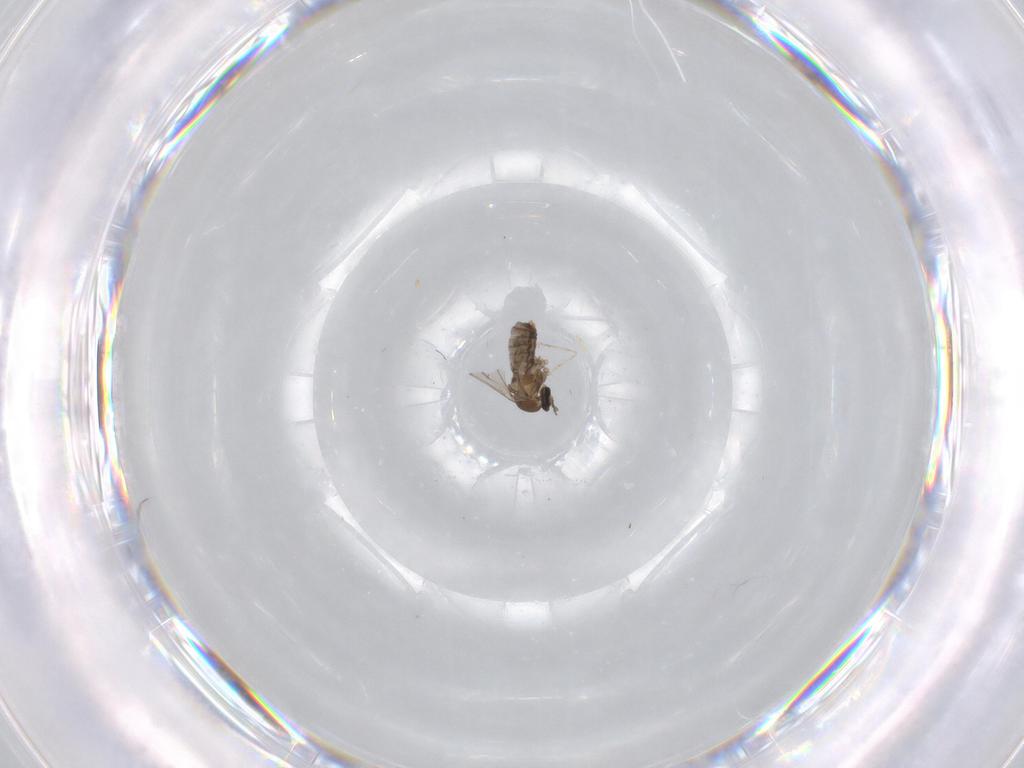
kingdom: Animalia
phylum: Arthropoda
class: Insecta
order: Diptera
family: Cecidomyiidae
